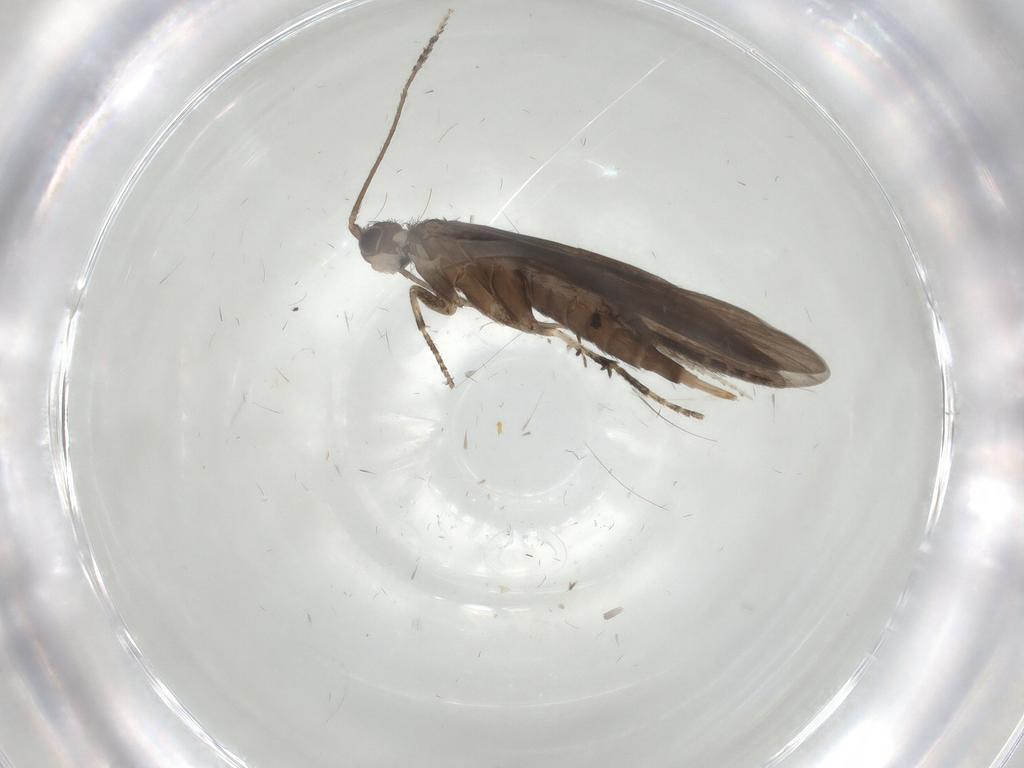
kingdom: Animalia
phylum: Arthropoda
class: Insecta
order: Trichoptera
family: Xiphocentronidae
